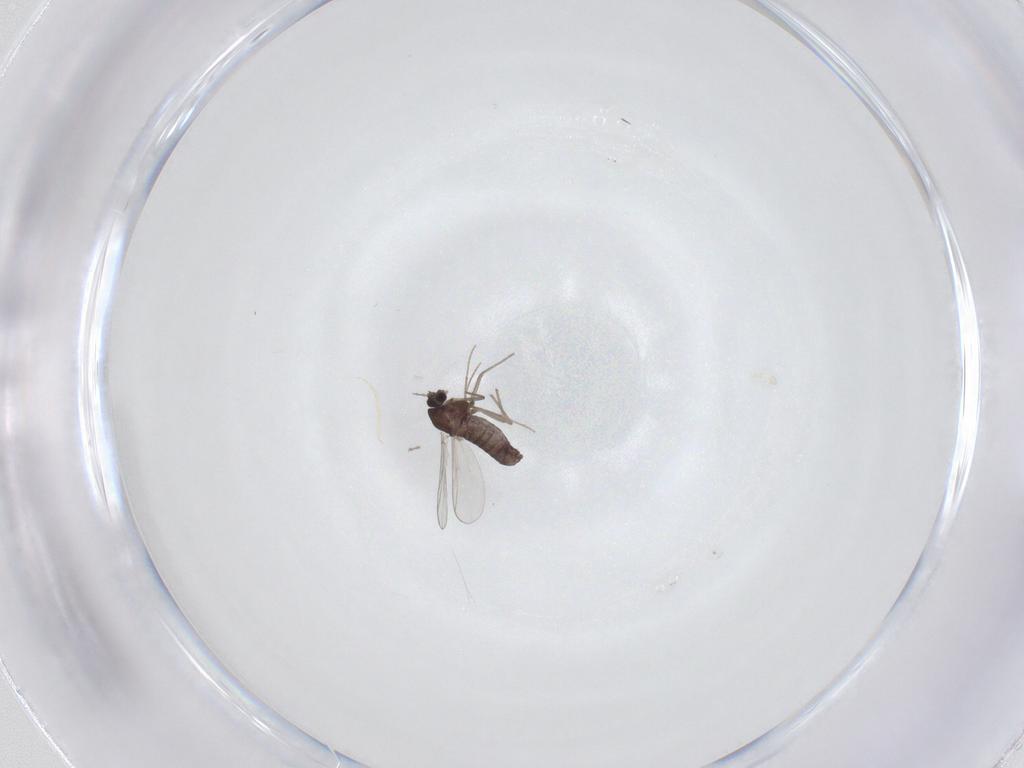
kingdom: Animalia
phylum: Arthropoda
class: Insecta
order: Diptera
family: Chironomidae
